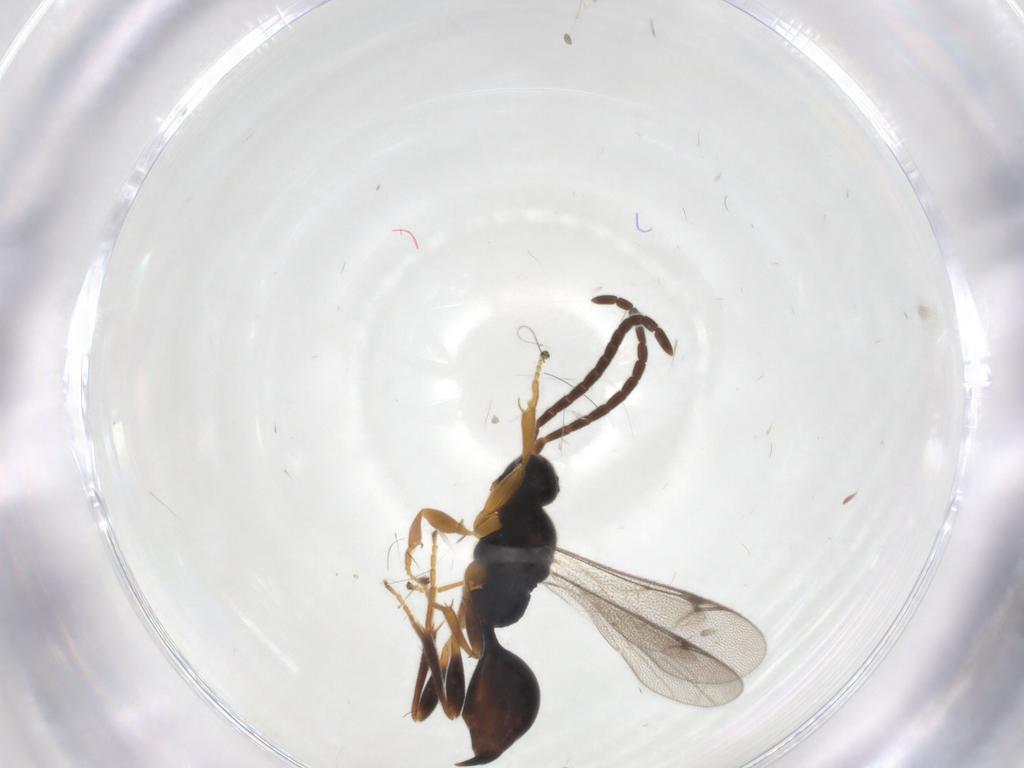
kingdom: Animalia
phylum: Arthropoda
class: Insecta
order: Hymenoptera
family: Proctotrupidae
